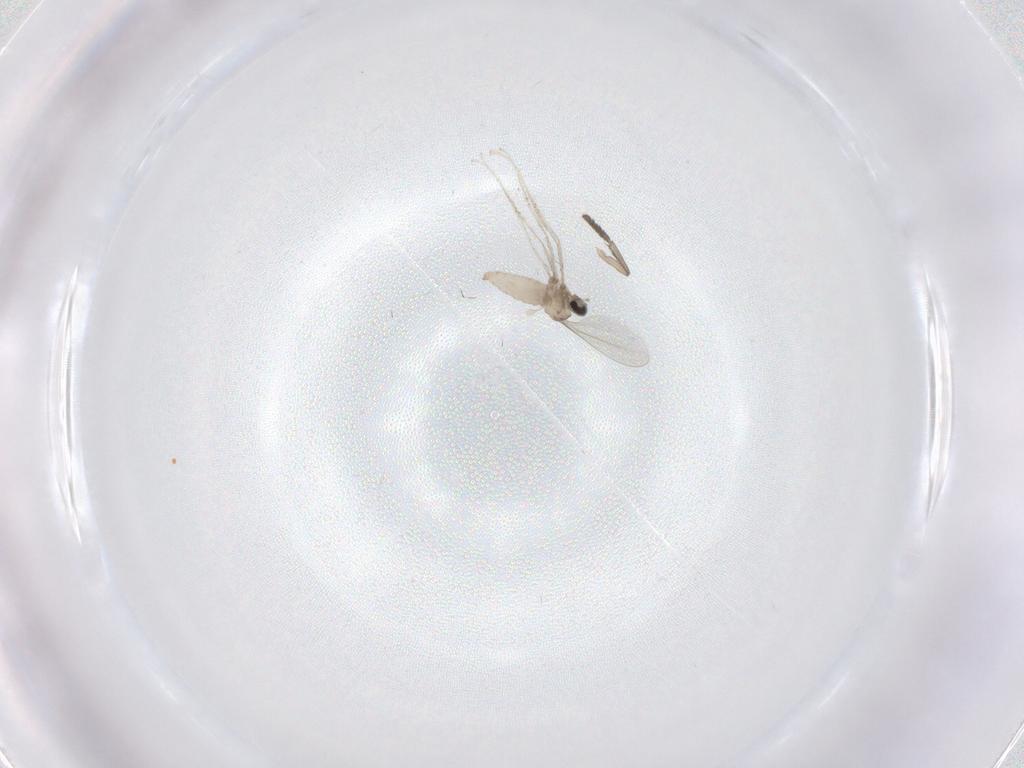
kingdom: Animalia
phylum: Arthropoda
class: Insecta
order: Diptera
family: Cecidomyiidae
